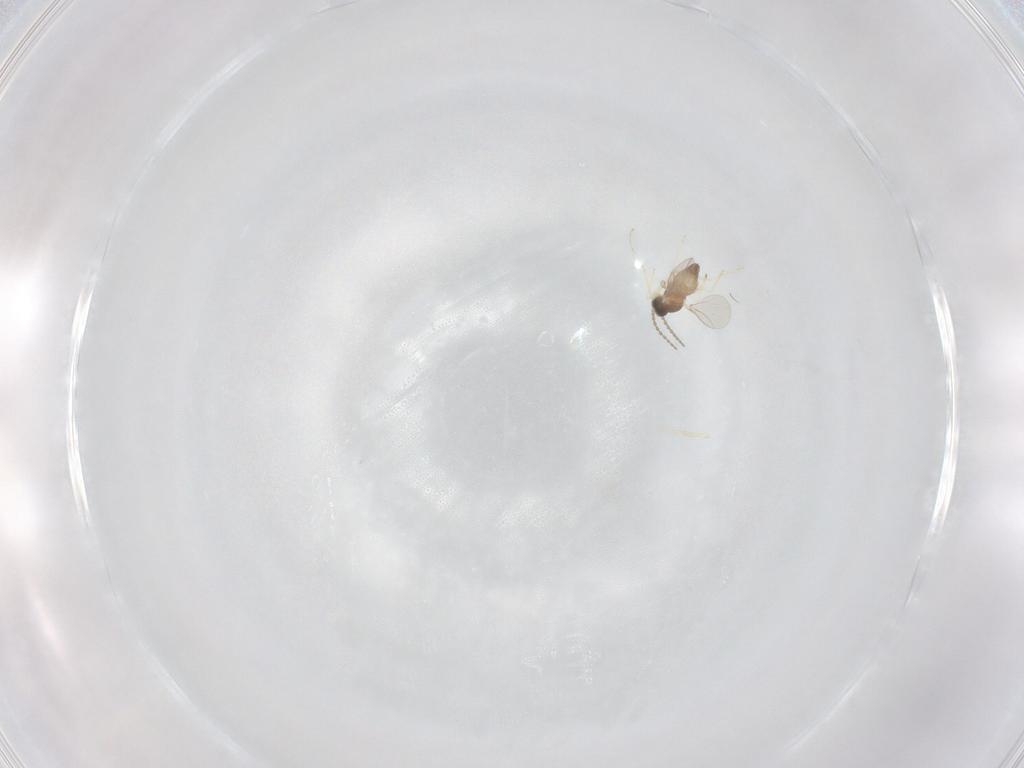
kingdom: Animalia
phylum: Arthropoda
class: Insecta
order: Diptera
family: Cecidomyiidae
